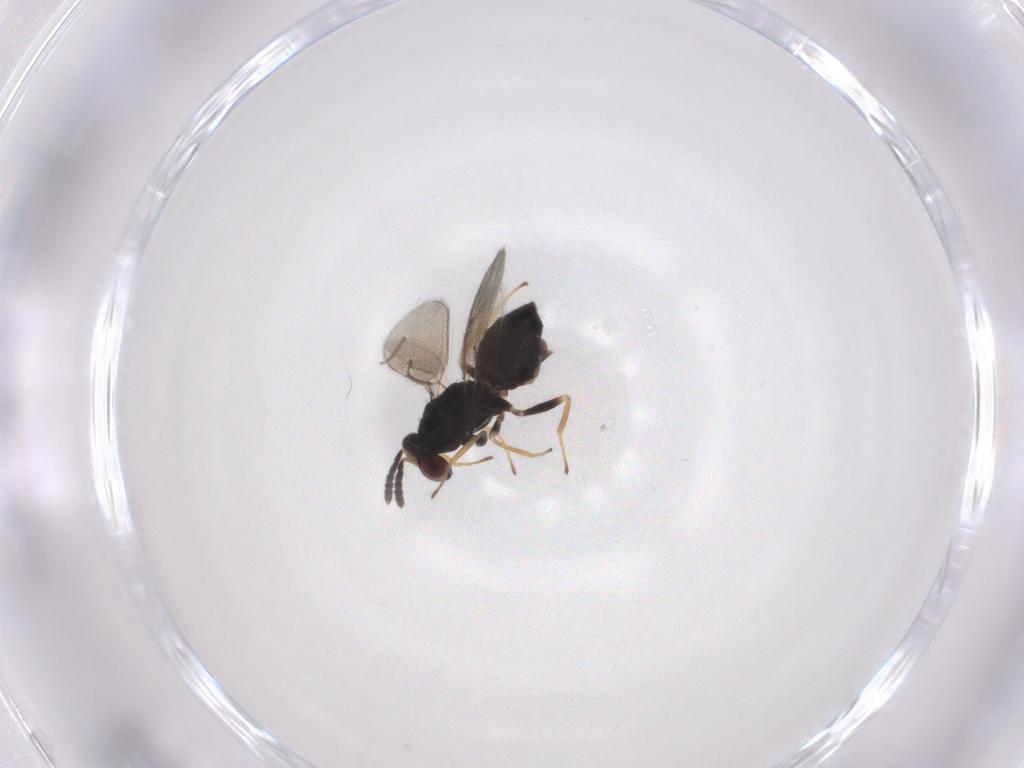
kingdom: Animalia
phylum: Arthropoda
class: Insecta
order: Hymenoptera
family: Eulophidae
